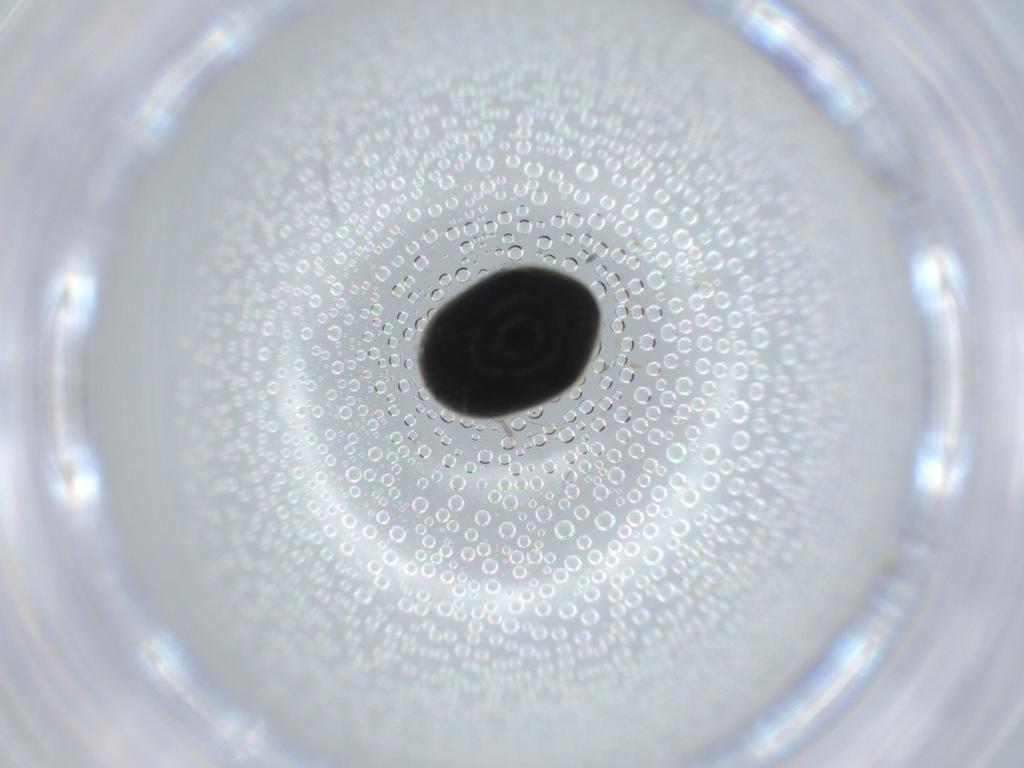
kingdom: Animalia
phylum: Arthropoda
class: Insecta
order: Coleoptera
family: Ptinidae
